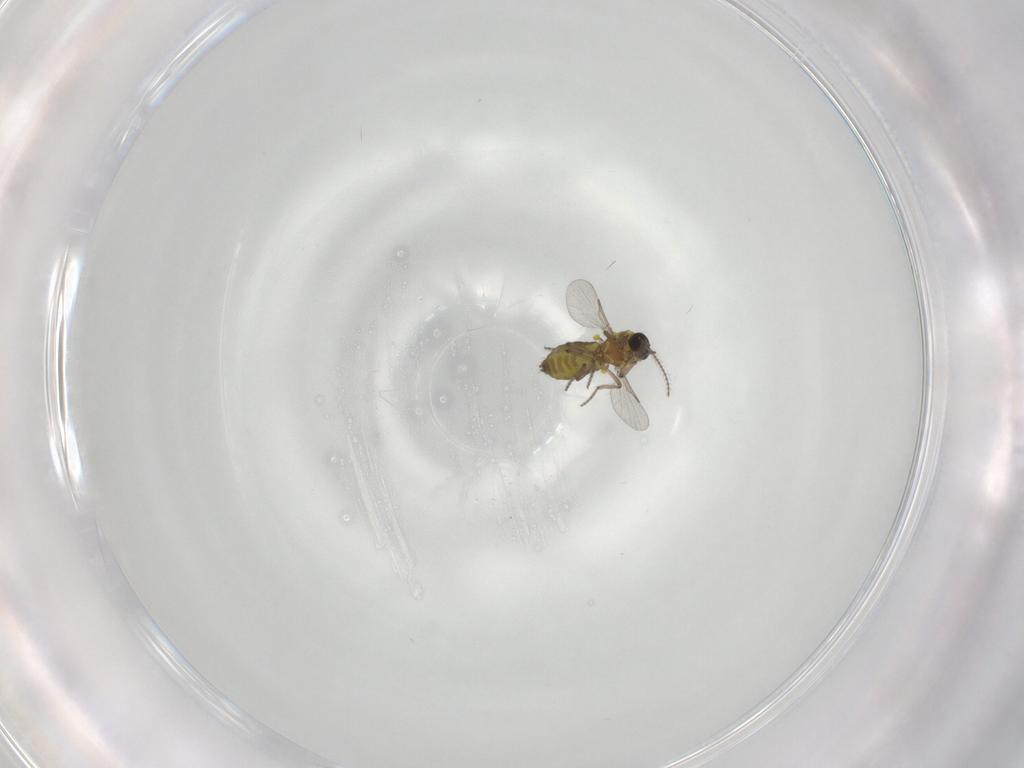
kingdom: Animalia
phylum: Arthropoda
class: Insecta
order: Diptera
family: Ceratopogonidae
